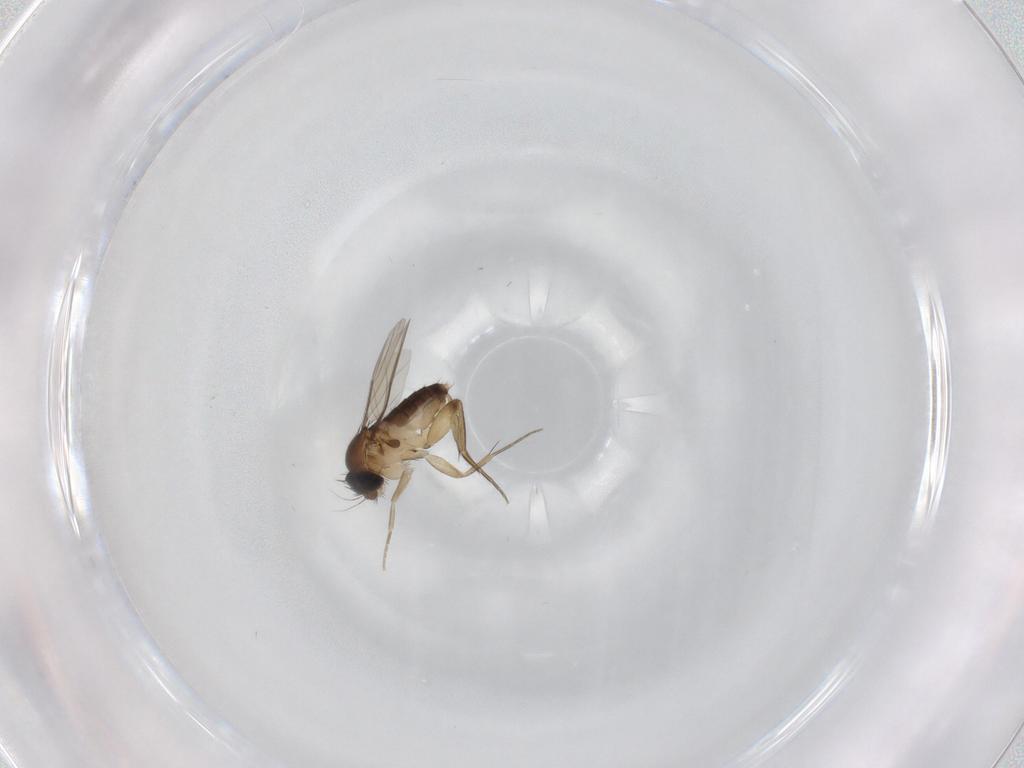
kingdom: Animalia
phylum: Arthropoda
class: Insecta
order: Diptera
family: Phoridae
